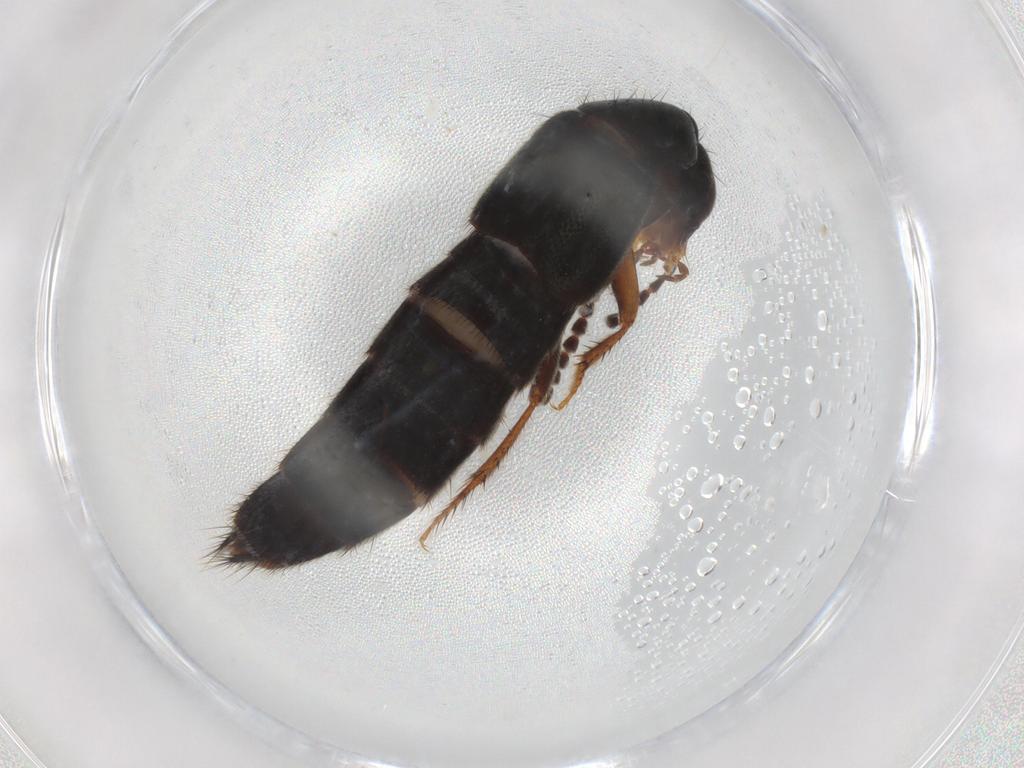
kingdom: Animalia
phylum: Arthropoda
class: Insecta
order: Coleoptera
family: Staphylinidae
